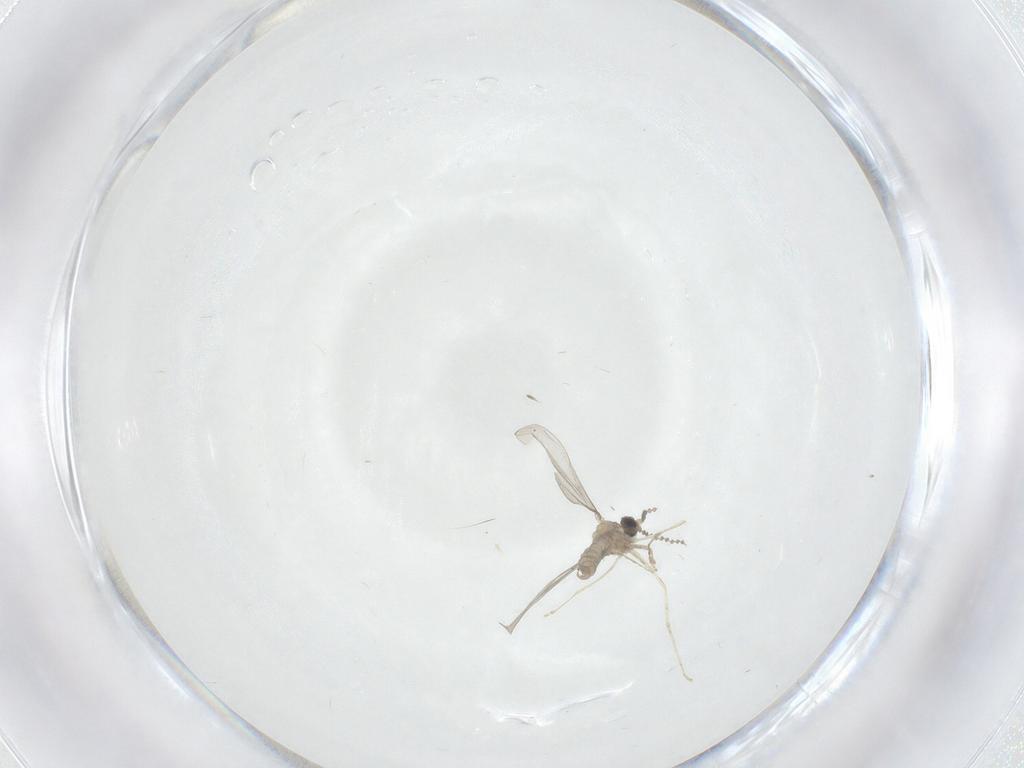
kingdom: Animalia
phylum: Arthropoda
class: Insecta
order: Diptera
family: Cecidomyiidae
